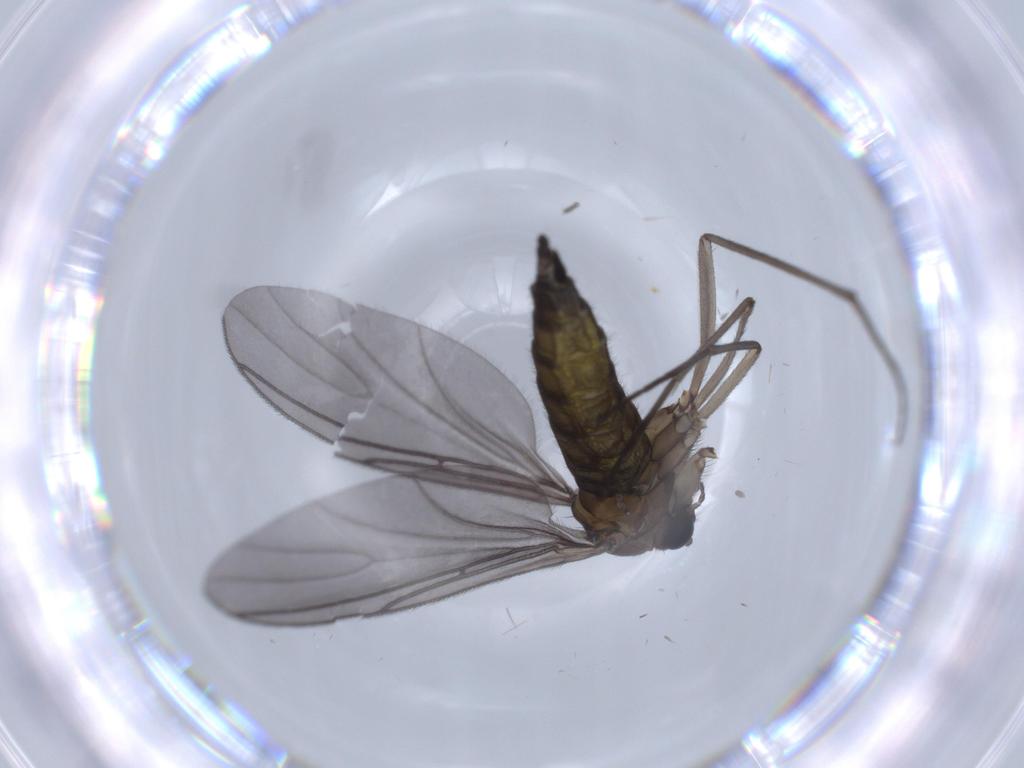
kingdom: Animalia
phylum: Arthropoda
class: Insecta
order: Diptera
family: Sciaridae
